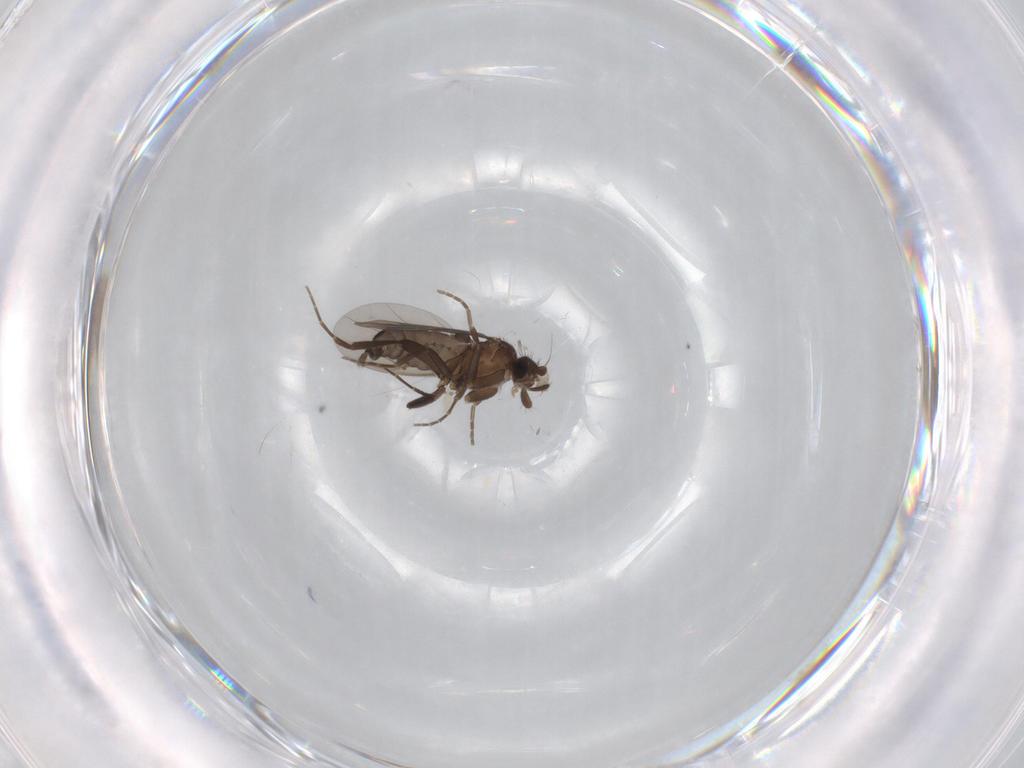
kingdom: Animalia
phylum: Arthropoda
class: Insecta
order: Diptera
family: Phoridae
